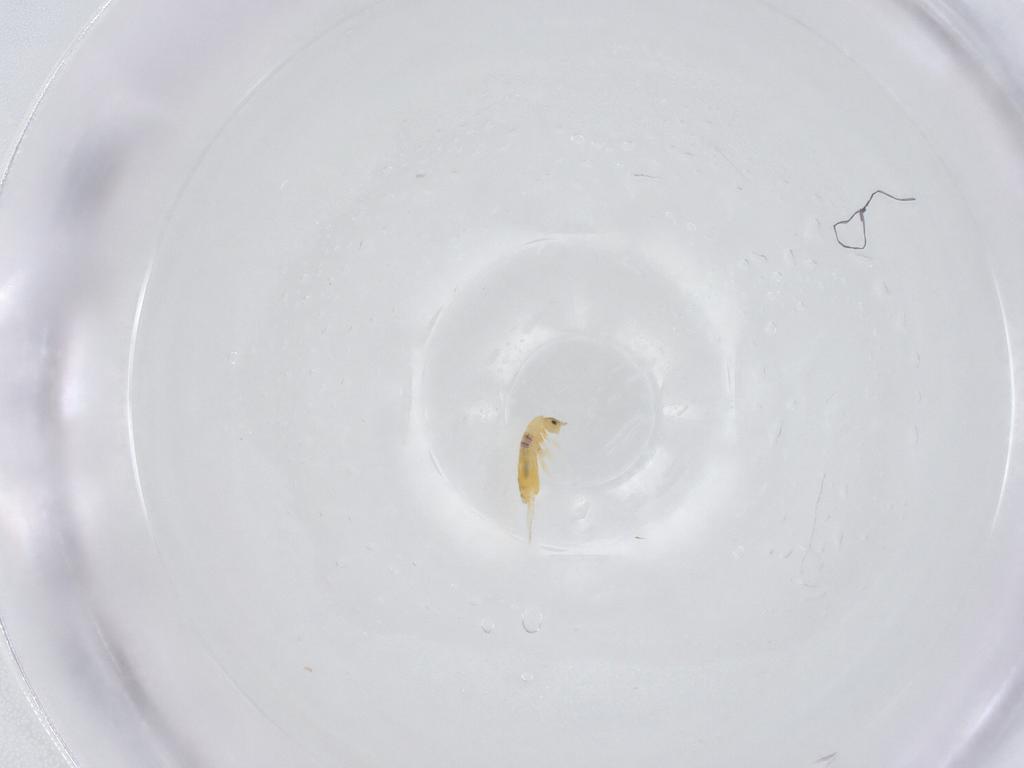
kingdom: Animalia
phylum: Arthropoda
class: Collembola
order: Entomobryomorpha
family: Entomobryidae
